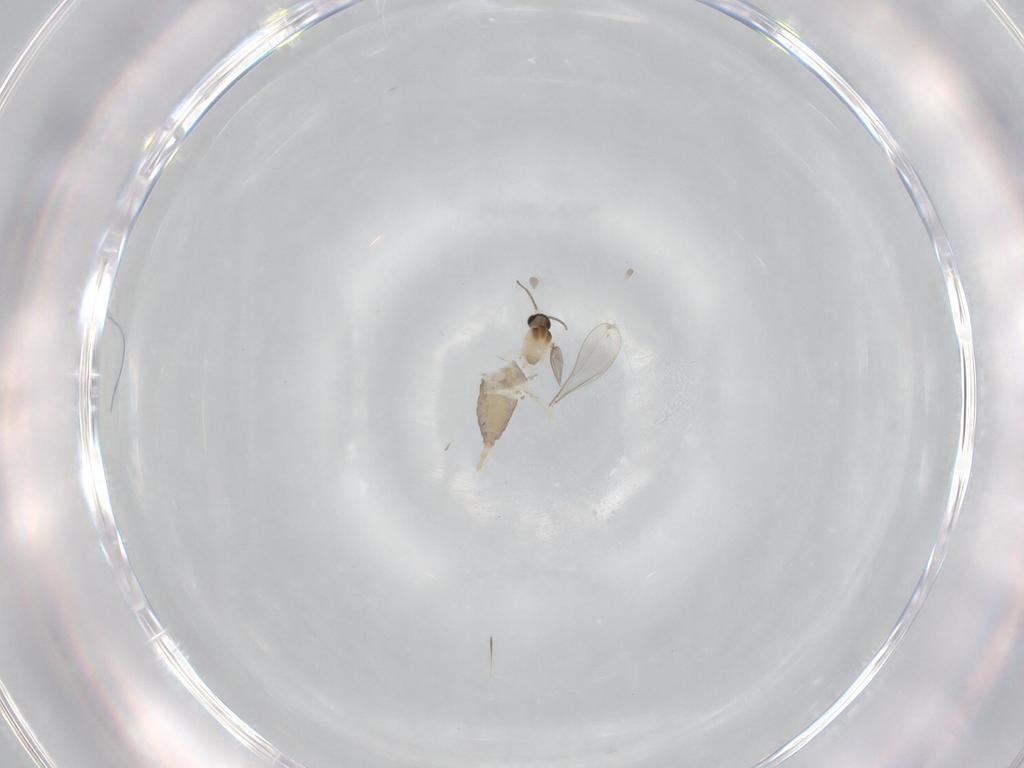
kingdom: Animalia
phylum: Arthropoda
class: Insecta
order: Diptera
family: Cecidomyiidae
